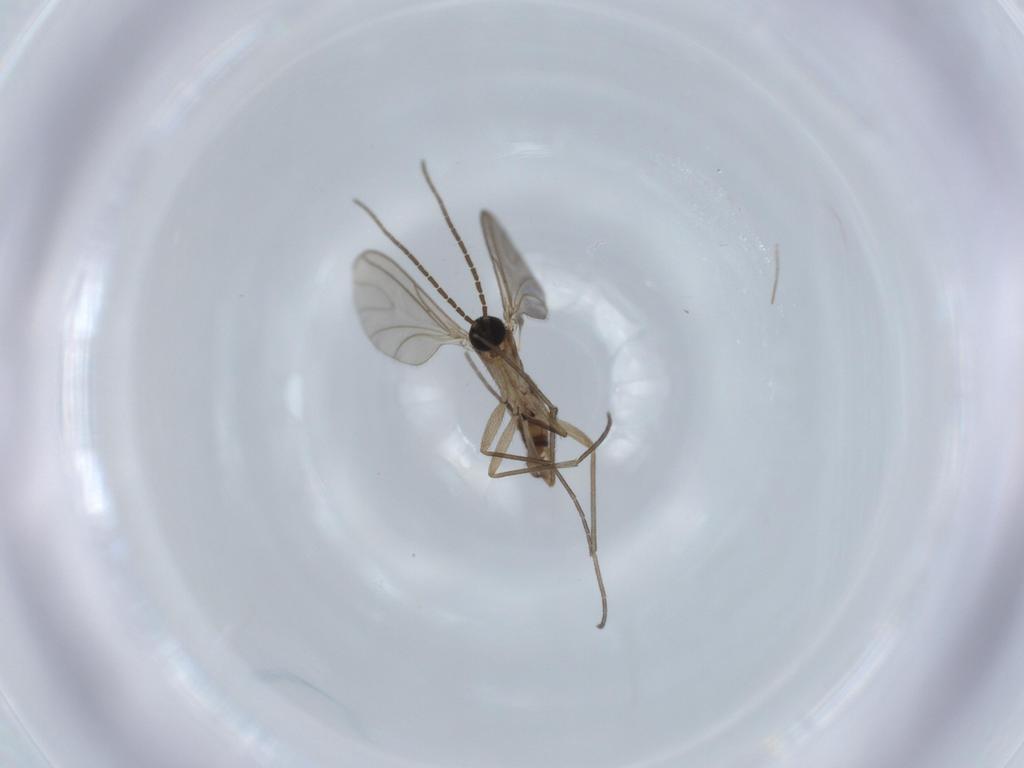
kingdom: Animalia
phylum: Arthropoda
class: Insecta
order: Diptera
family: Sciaridae
